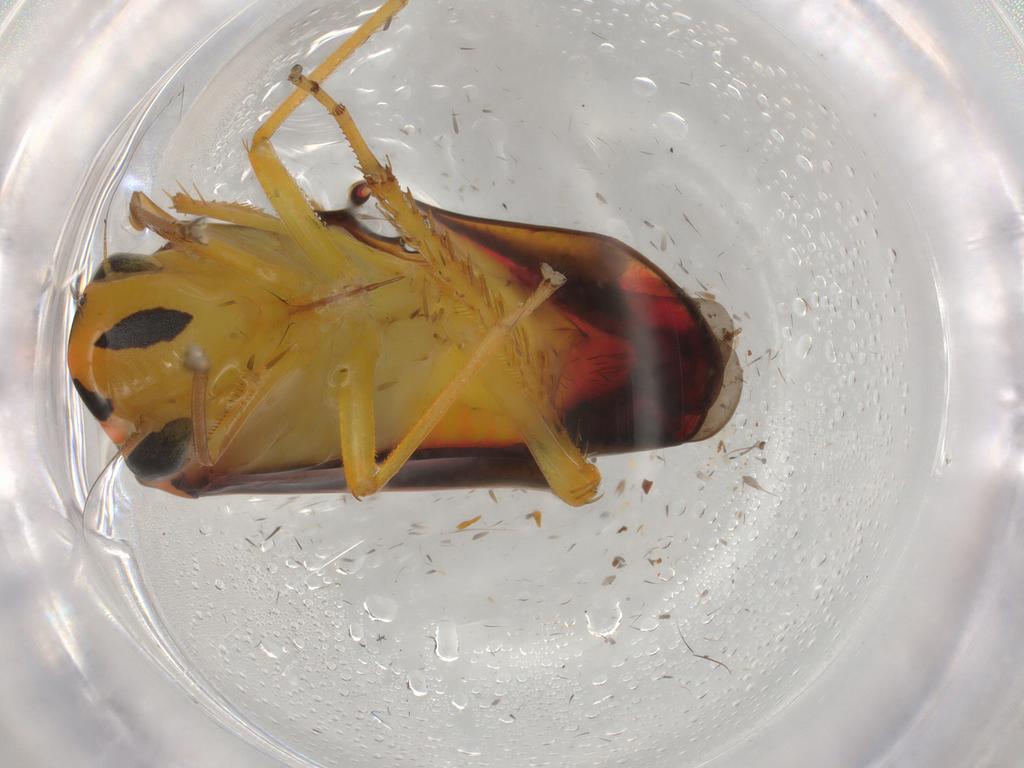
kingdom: Animalia
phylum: Arthropoda
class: Insecta
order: Hemiptera
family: Cicadellidae
